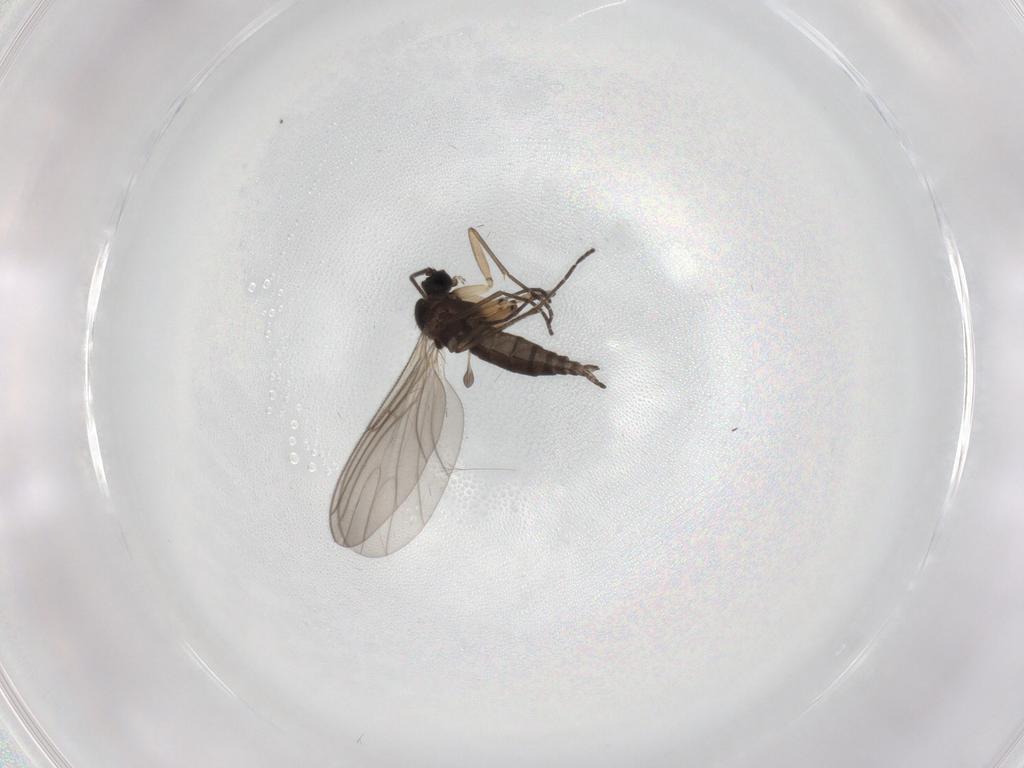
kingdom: Animalia
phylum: Arthropoda
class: Insecta
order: Diptera
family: Sciaridae
